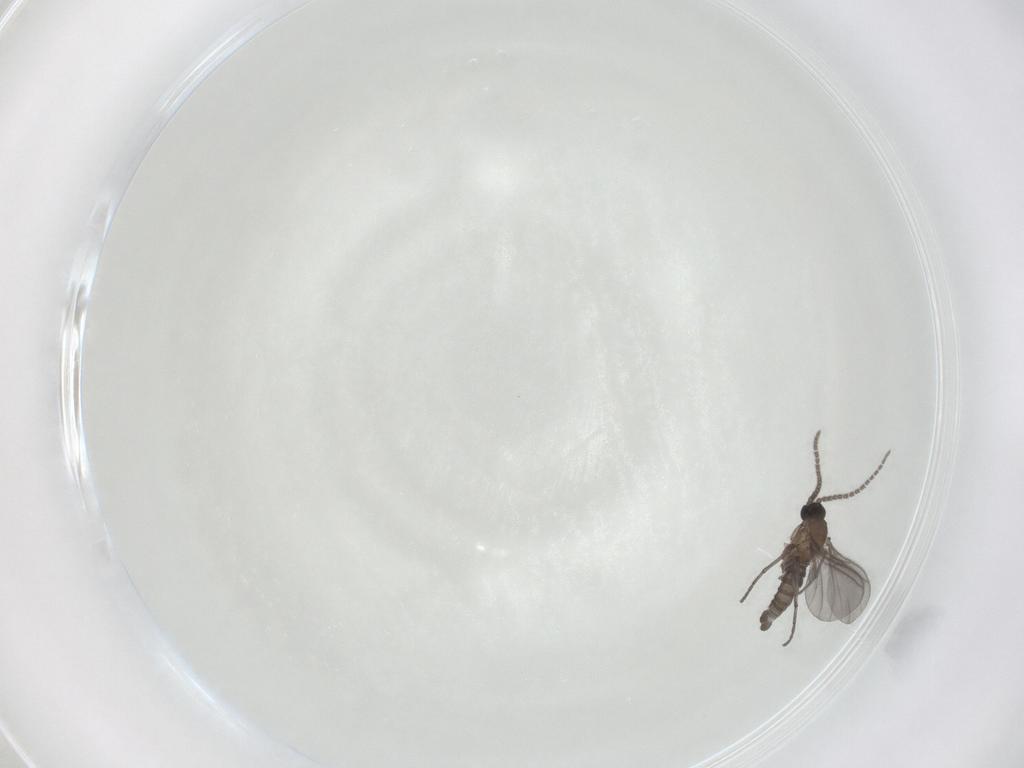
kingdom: Animalia
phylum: Arthropoda
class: Insecta
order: Diptera
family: Sciaridae
